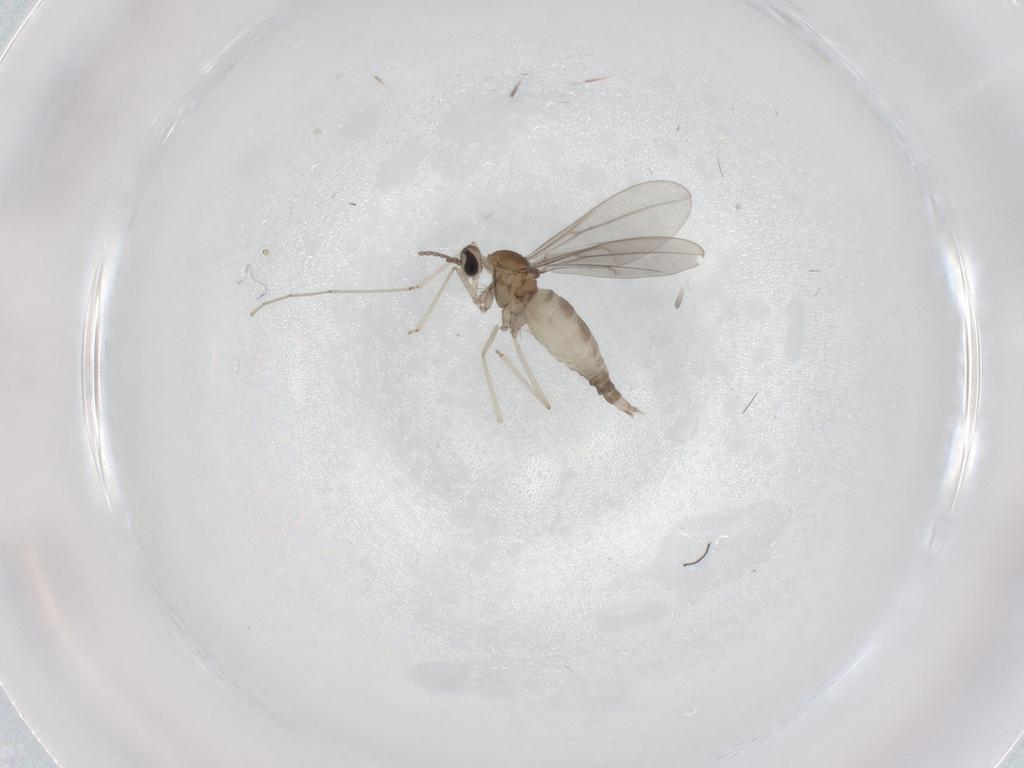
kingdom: Animalia
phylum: Arthropoda
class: Insecta
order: Diptera
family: Cecidomyiidae
